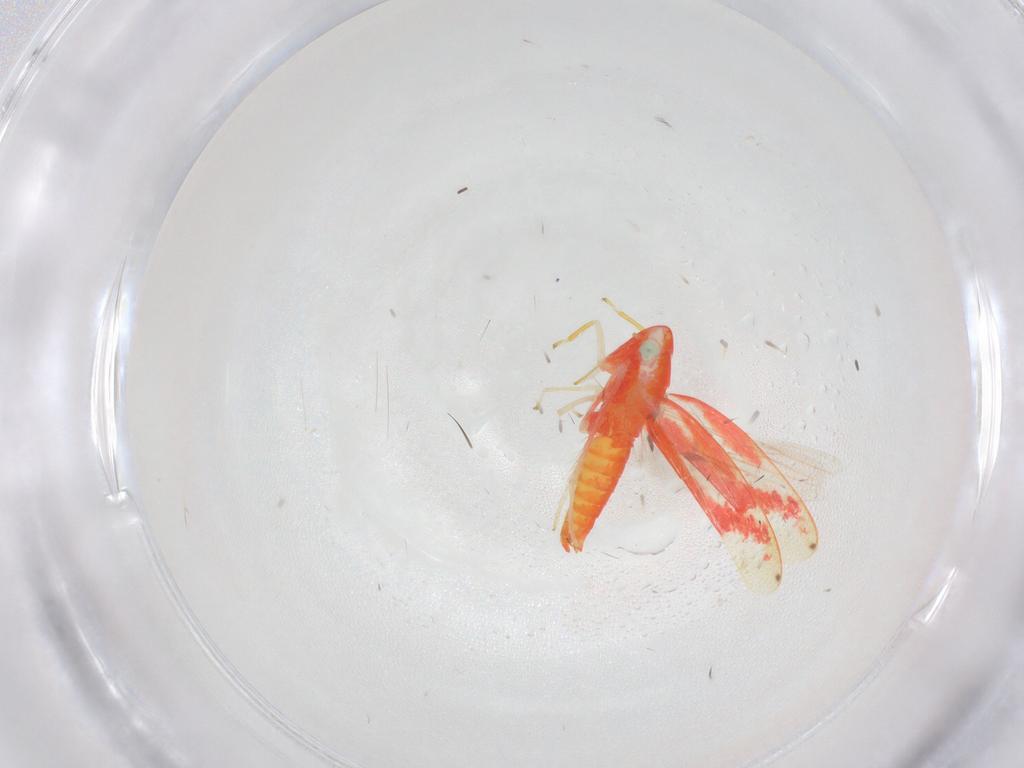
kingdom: Animalia
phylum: Arthropoda
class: Insecta
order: Hemiptera
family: Cicadellidae
